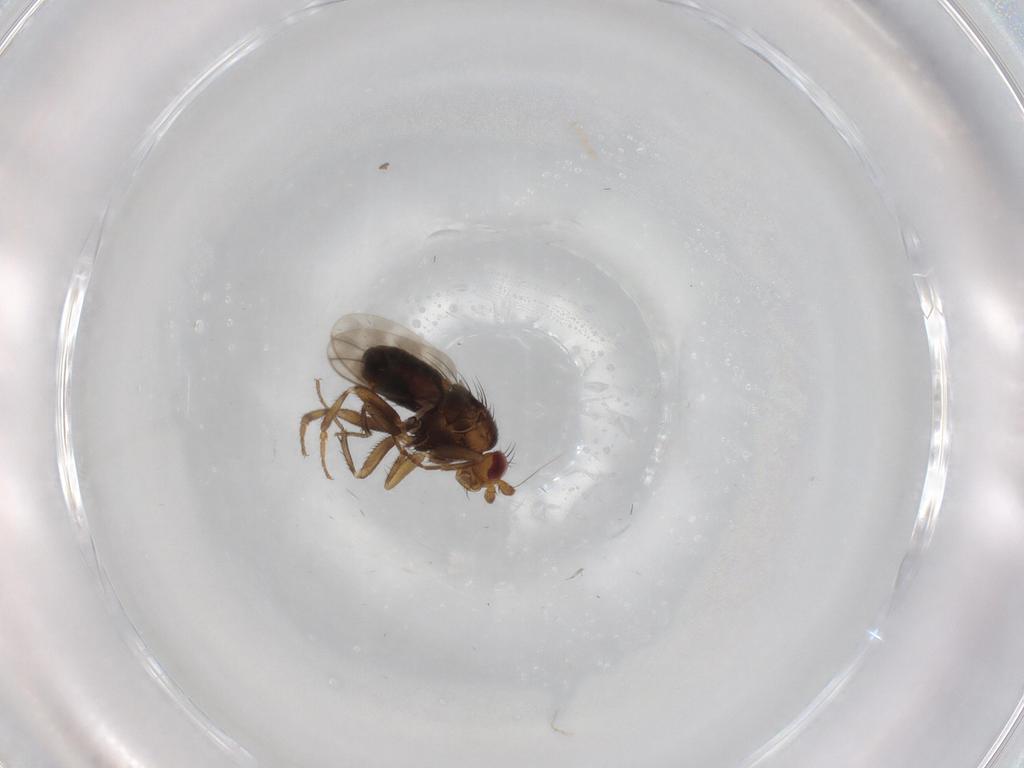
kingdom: Animalia
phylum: Arthropoda
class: Insecta
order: Diptera
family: Sphaeroceridae
